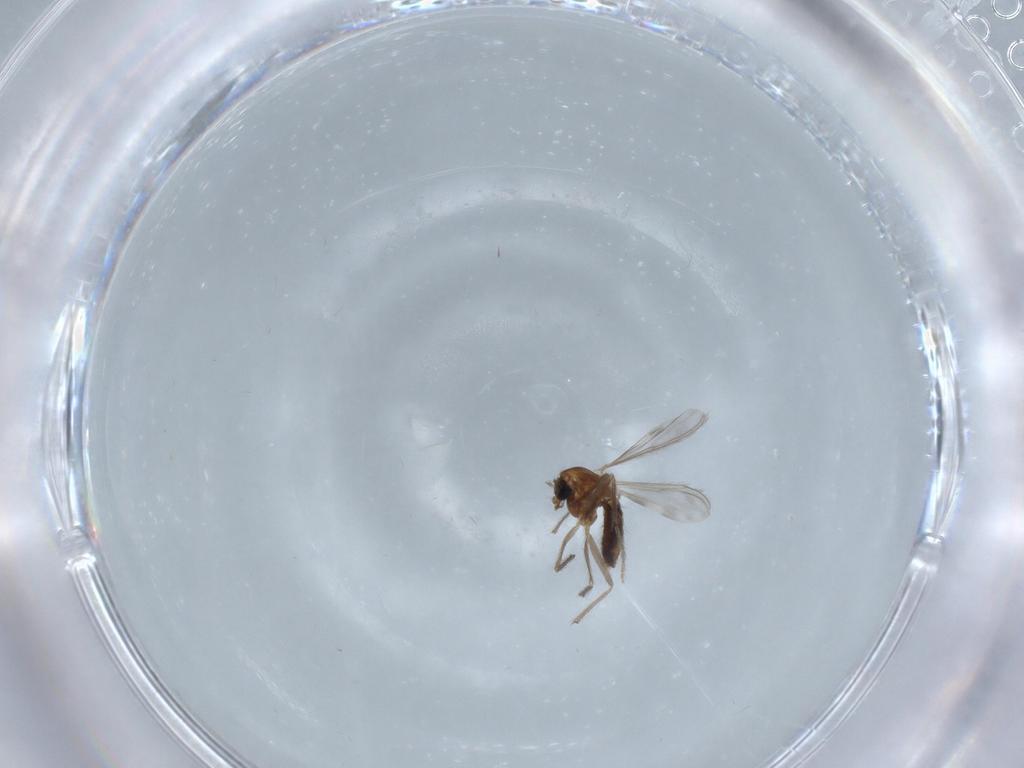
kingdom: Animalia
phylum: Arthropoda
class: Insecta
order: Diptera
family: Chironomidae
